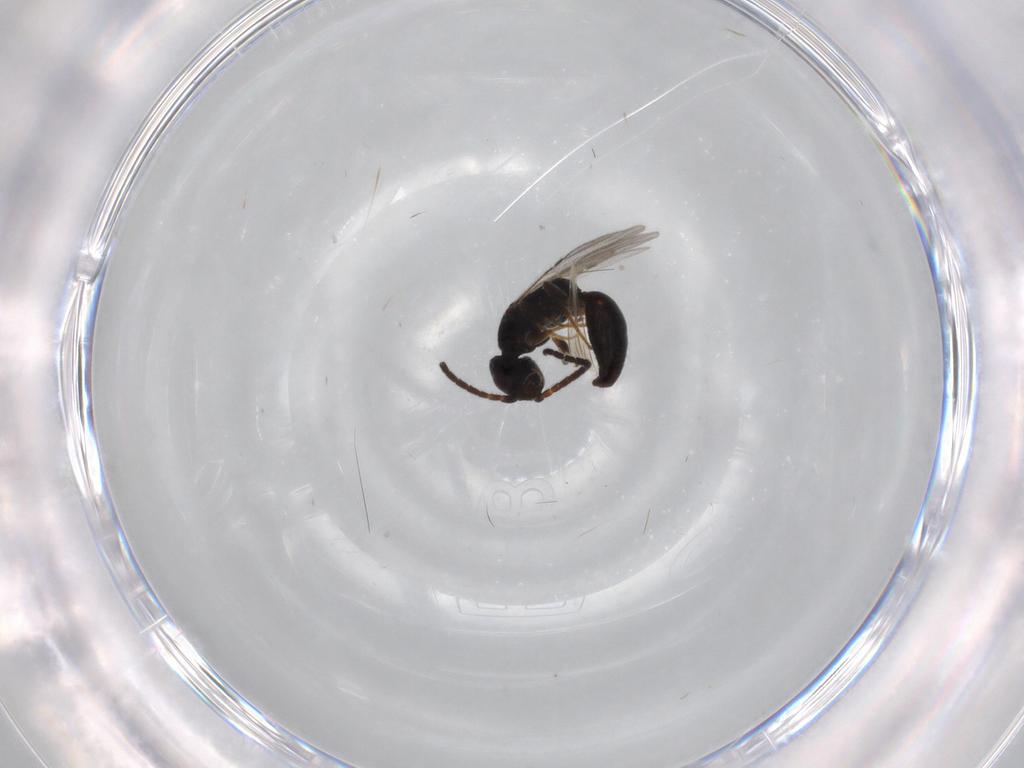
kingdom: Animalia
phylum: Arthropoda
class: Insecta
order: Hymenoptera
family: Bethylidae
